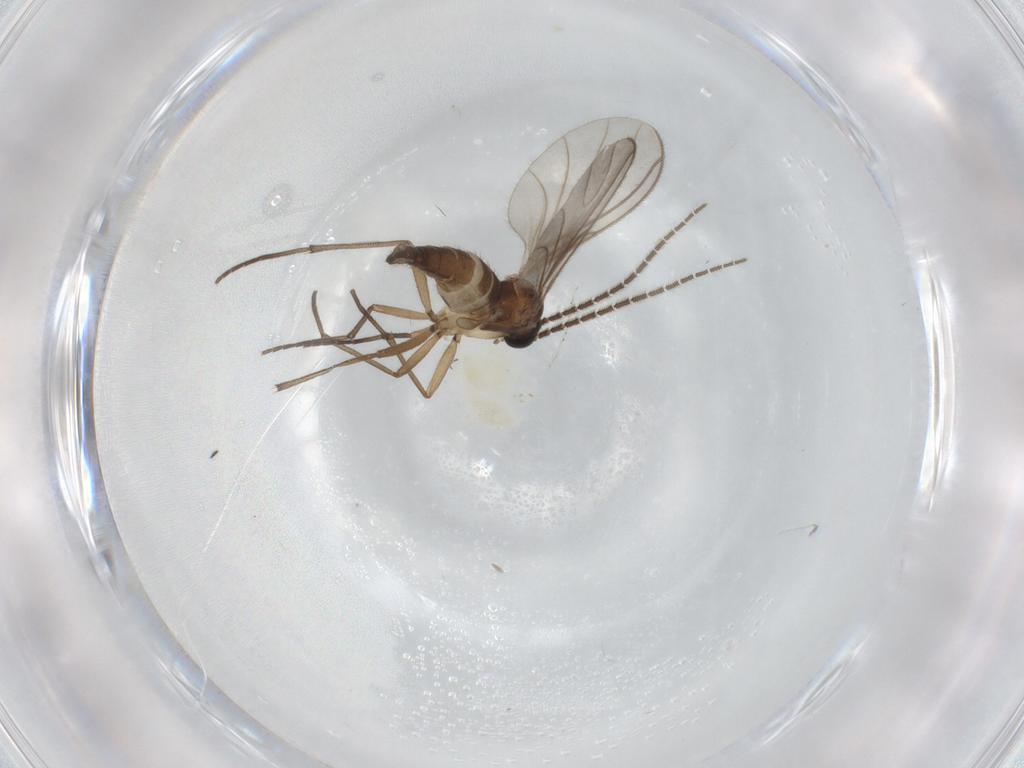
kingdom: Animalia
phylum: Arthropoda
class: Insecta
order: Diptera
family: Sciaridae
